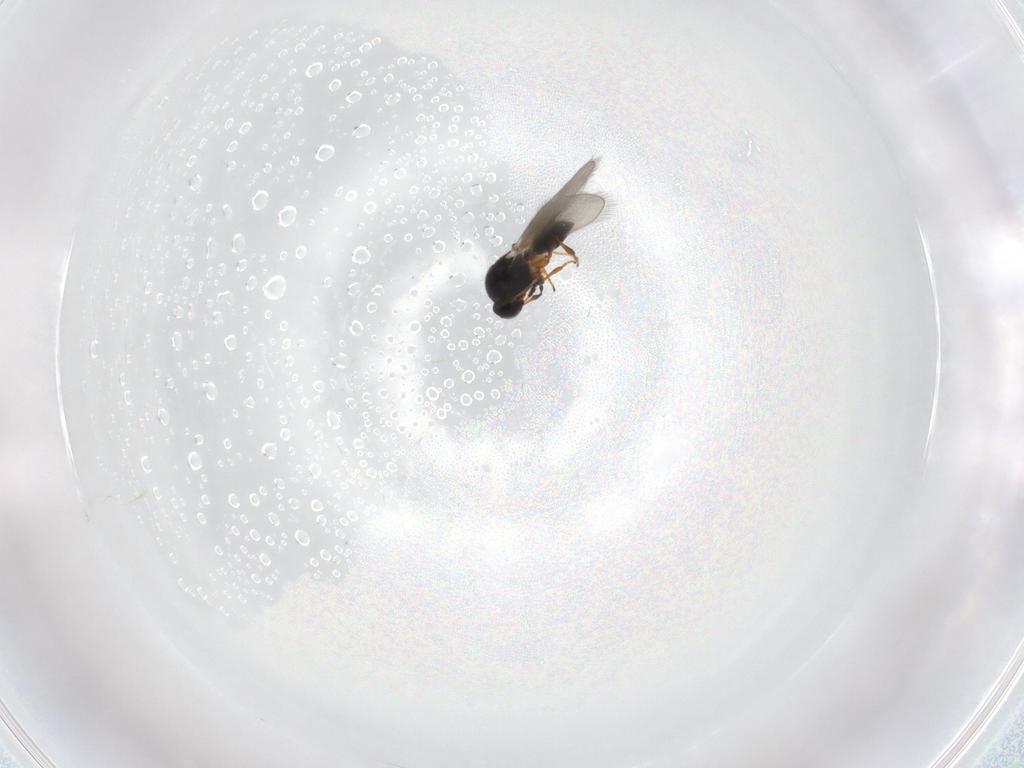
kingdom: Animalia
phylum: Arthropoda
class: Insecta
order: Hymenoptera
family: Platygastridae
